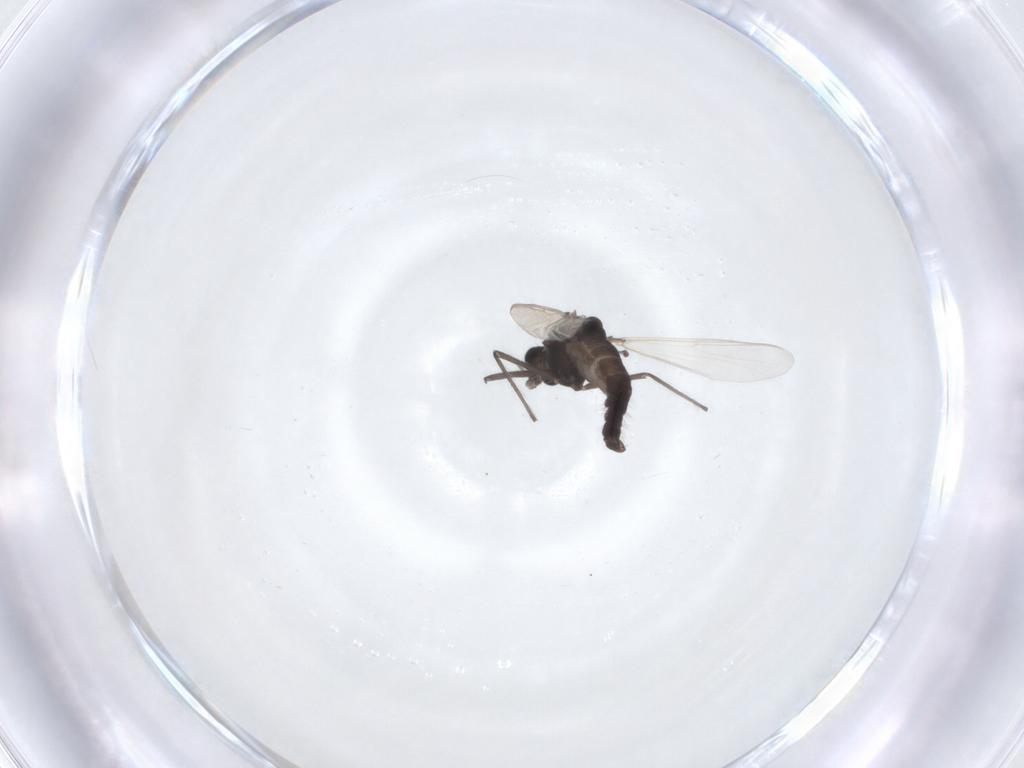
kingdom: Animalia
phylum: Arthropoda
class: Insecta
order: Diptera
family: Chironomidae
